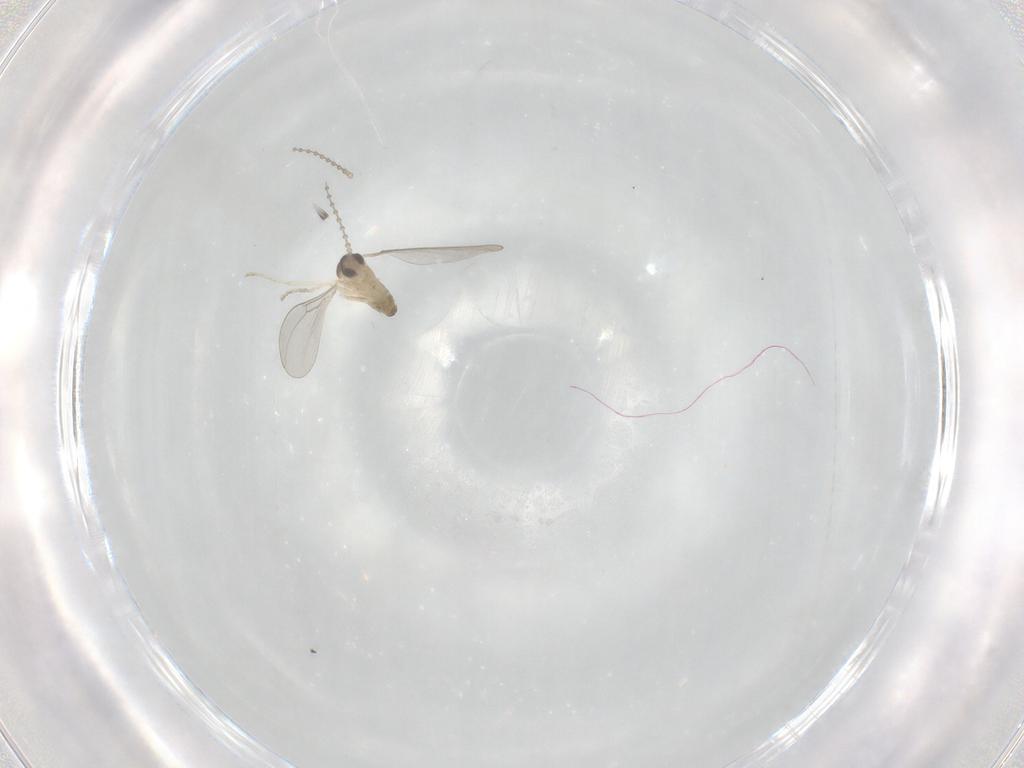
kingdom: Animalia
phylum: Arthropoda
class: Insecta
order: Diptera
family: Cecidomyiidae
